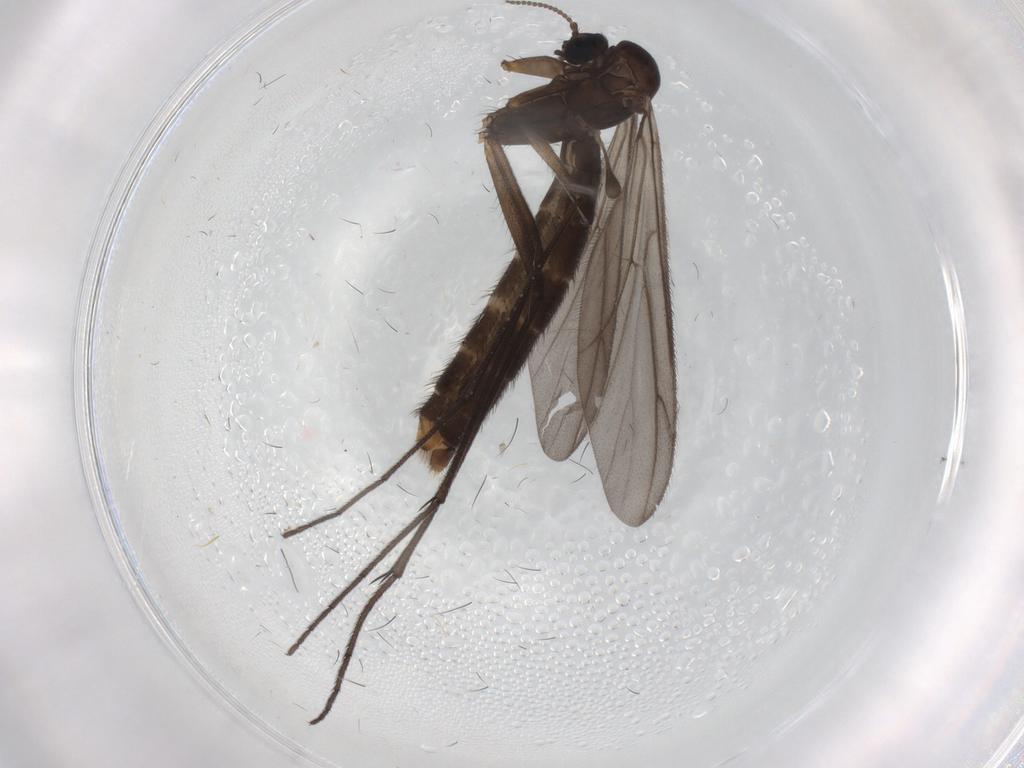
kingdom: Animalia
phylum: Arthropoda
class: Insecta
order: Diptera
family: Keroplatidae
